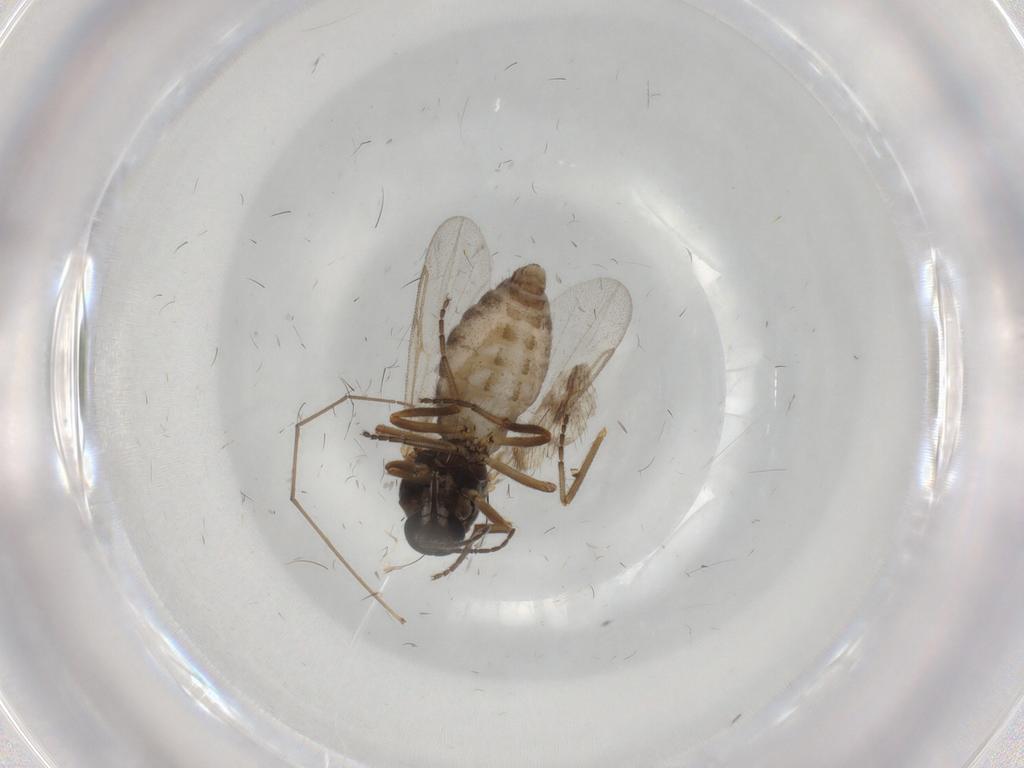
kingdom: Animalia
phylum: Arthropoda
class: Insecta
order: Diptera
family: Ceratopogonidae
